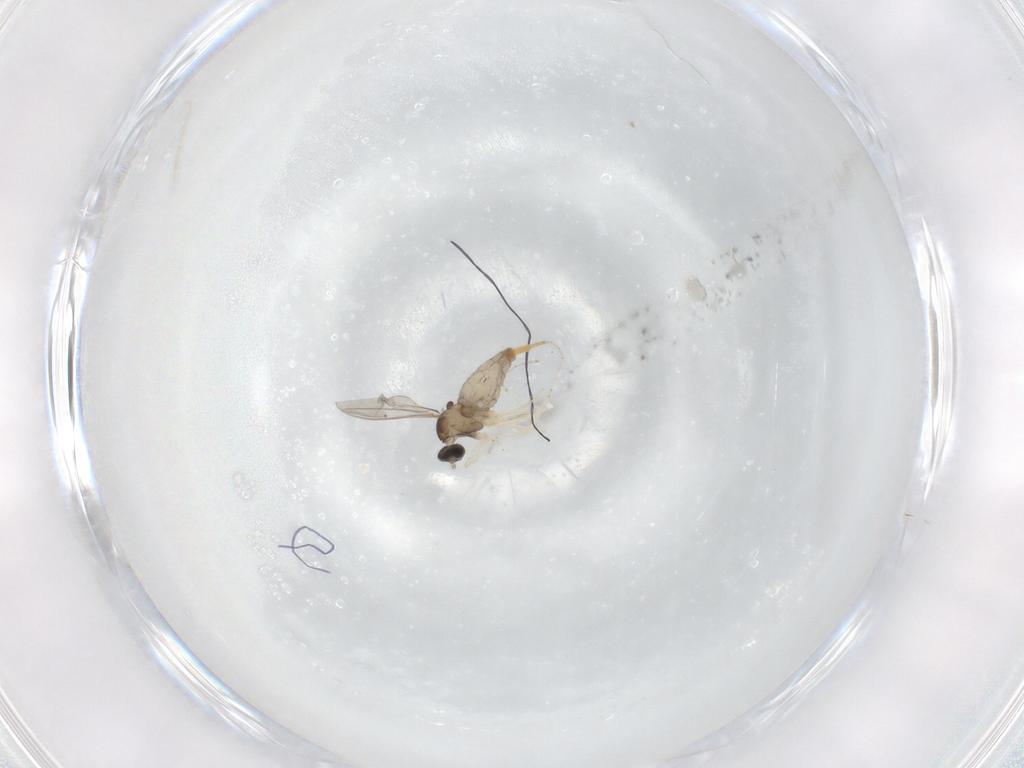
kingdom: Animalia
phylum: Arthropoda
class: Insecta
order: Diptera
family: Cecidomyiidae
